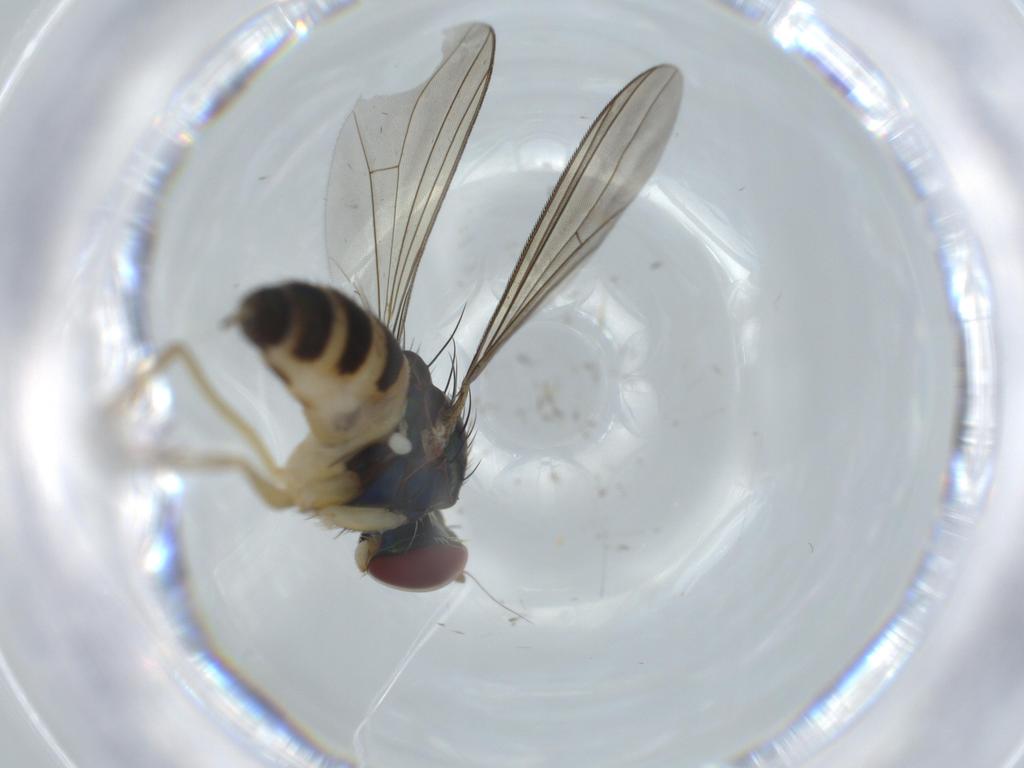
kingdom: Animalia
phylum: Arthropoda
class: Insecta
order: Diptera
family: Dolichopodidae
